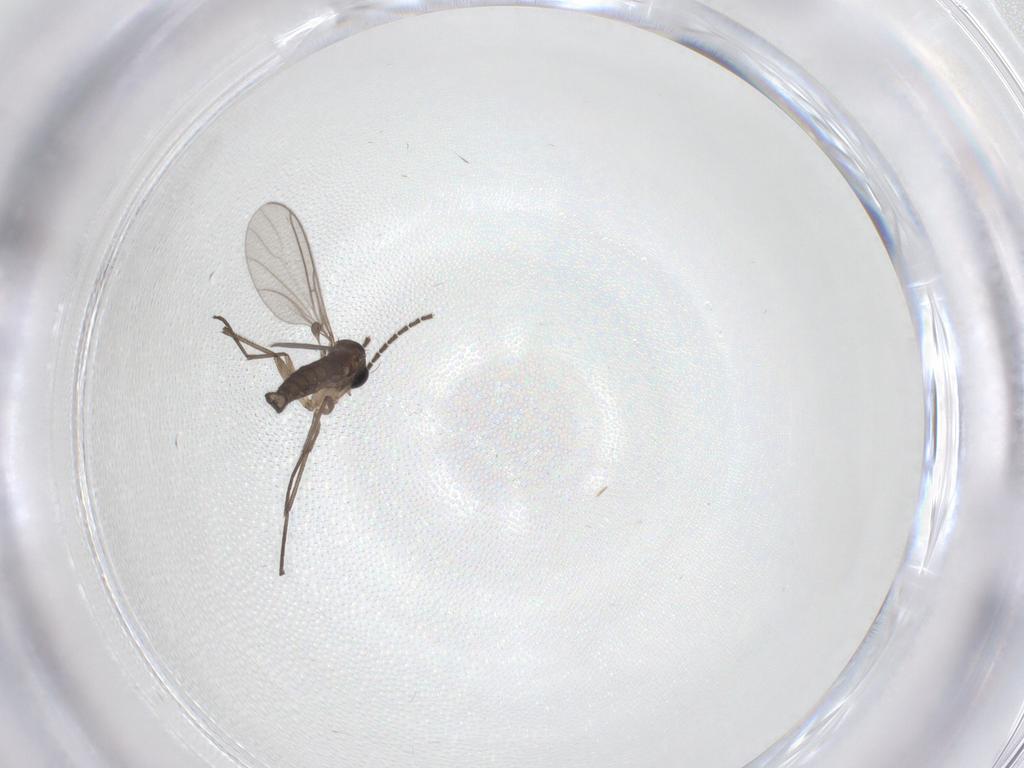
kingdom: Animalia
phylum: Arthropoda
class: Insecta
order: Diptera
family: Sciaridae
